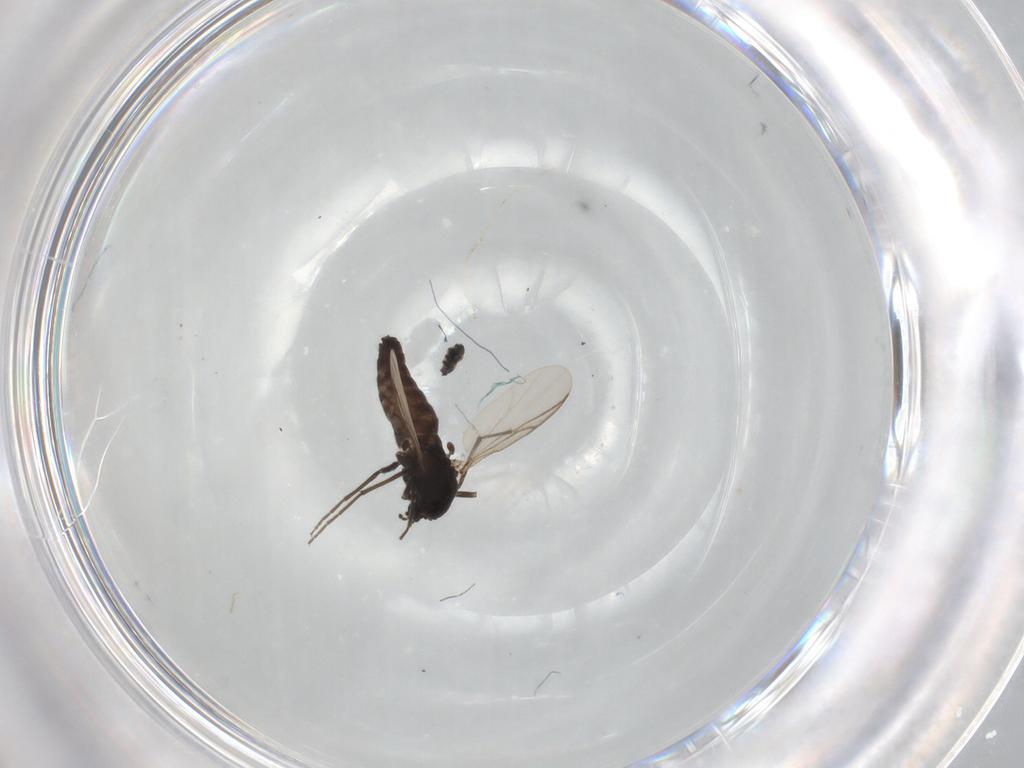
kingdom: Animalia
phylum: Arthropoda
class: Insecta
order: Diptera
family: Chironomidae
